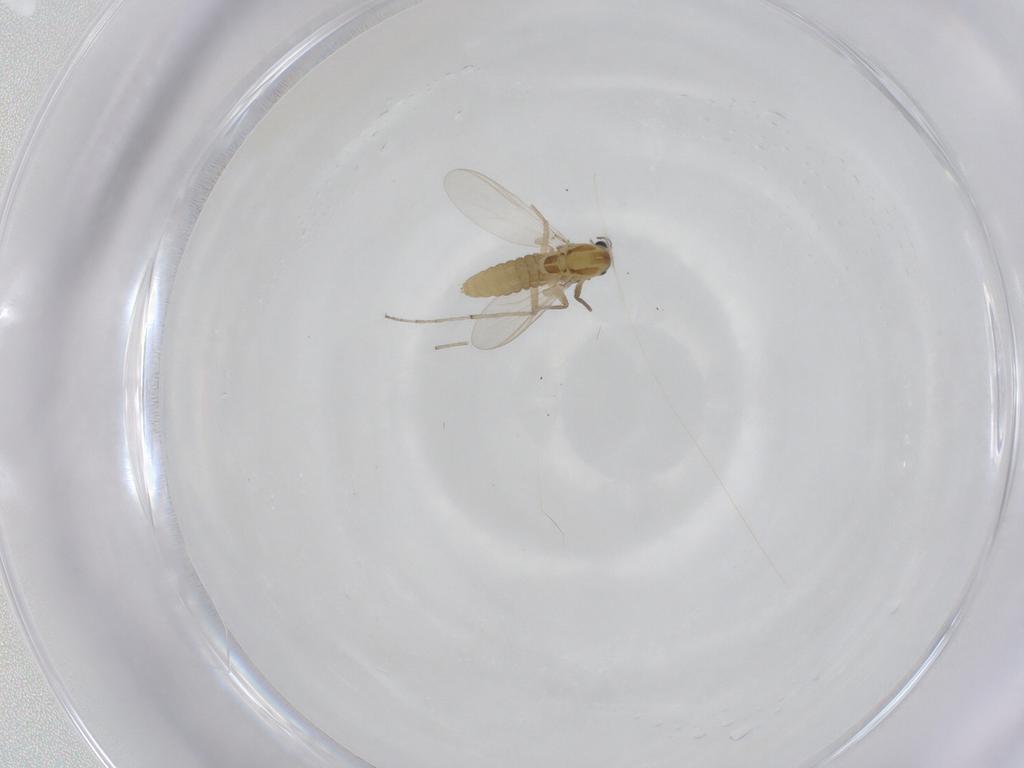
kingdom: Animalia
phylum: Arthropoda
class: Insecta
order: Diptera
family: Chironomidae
